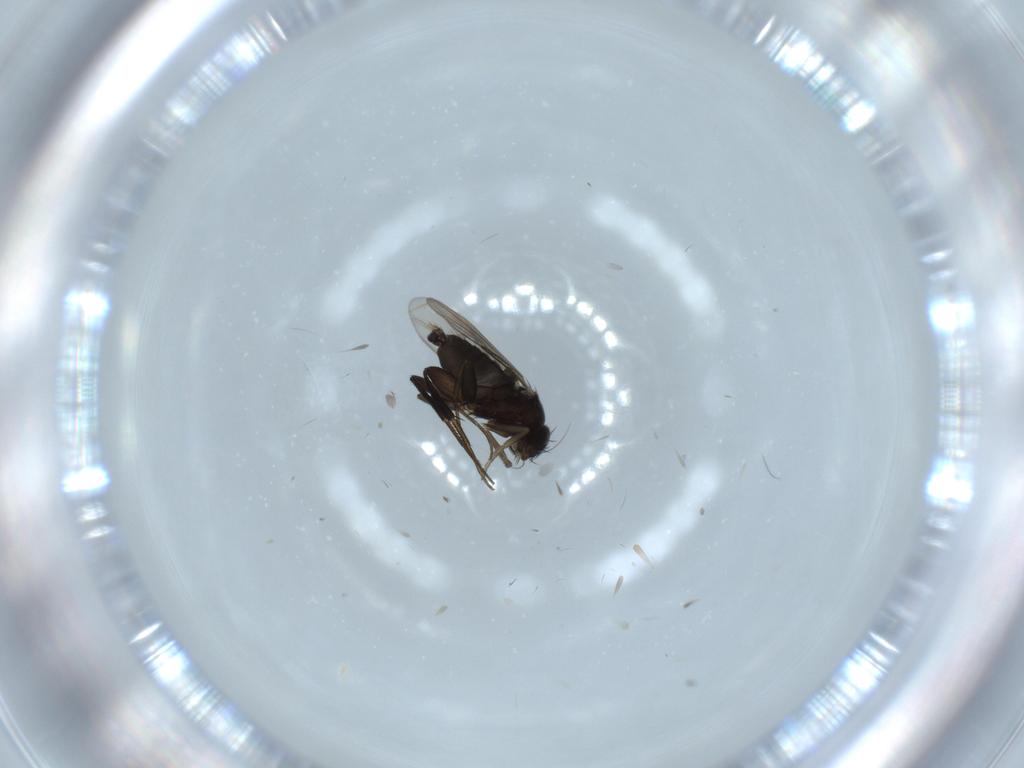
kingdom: Animalia
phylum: Arthropoda
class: Insecta
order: Diptera
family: Phoridae
